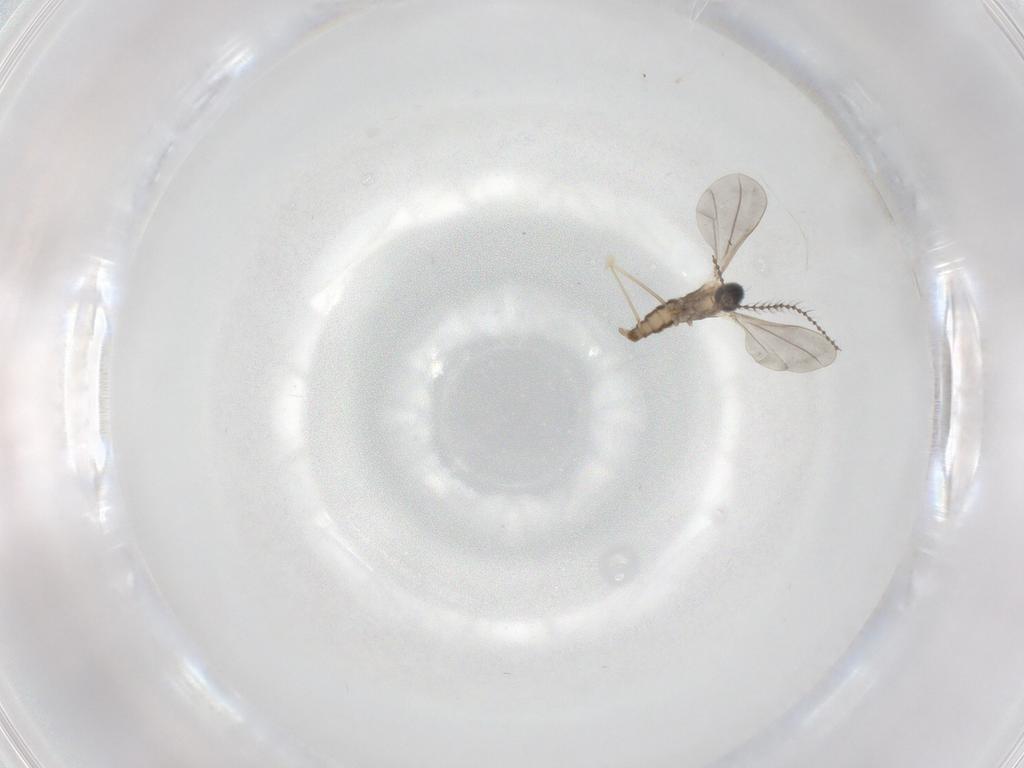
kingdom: Animalia
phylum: Arthropoda
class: Insecta
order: Diptera
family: Cecidomyiidae
